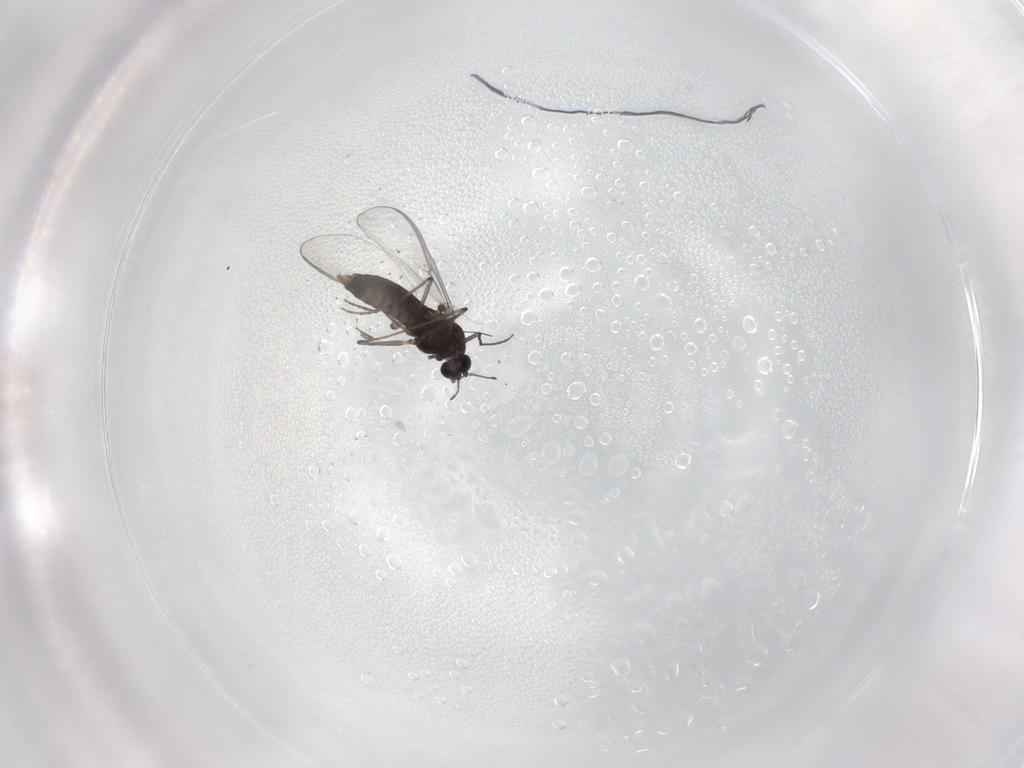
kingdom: Animalia
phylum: Arthropoda
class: Insecta
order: Diptera
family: Chironomidae
